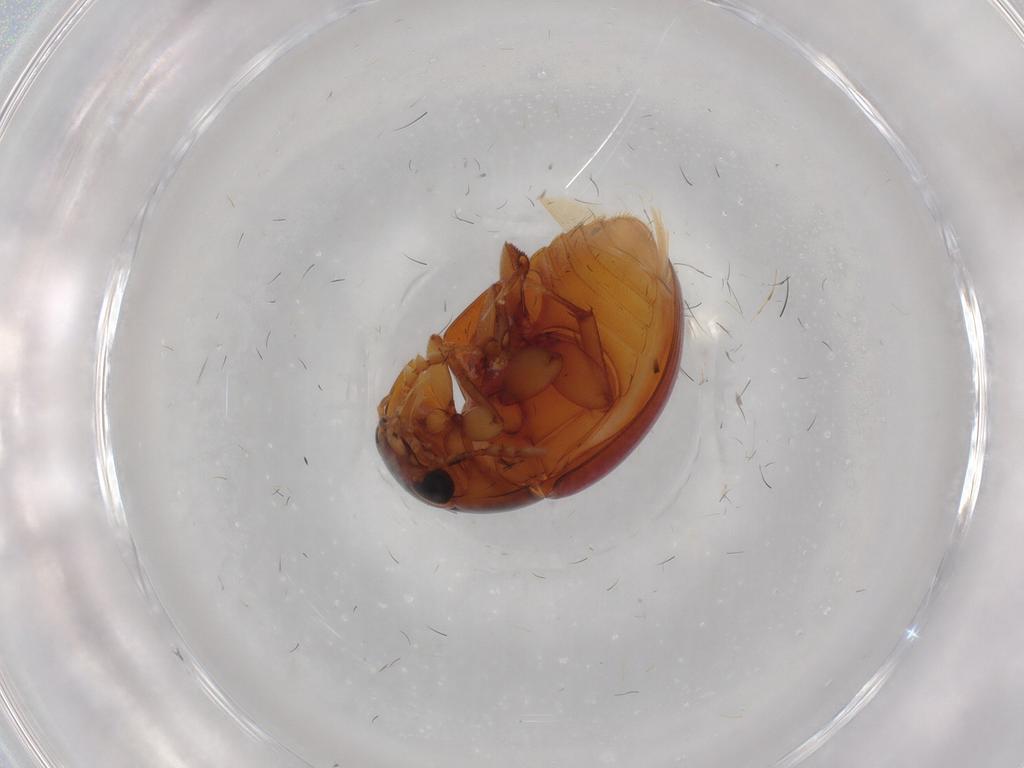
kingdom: Animalia
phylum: Arthropoda
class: Insecta
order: Coleoptera
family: Phalacridae
